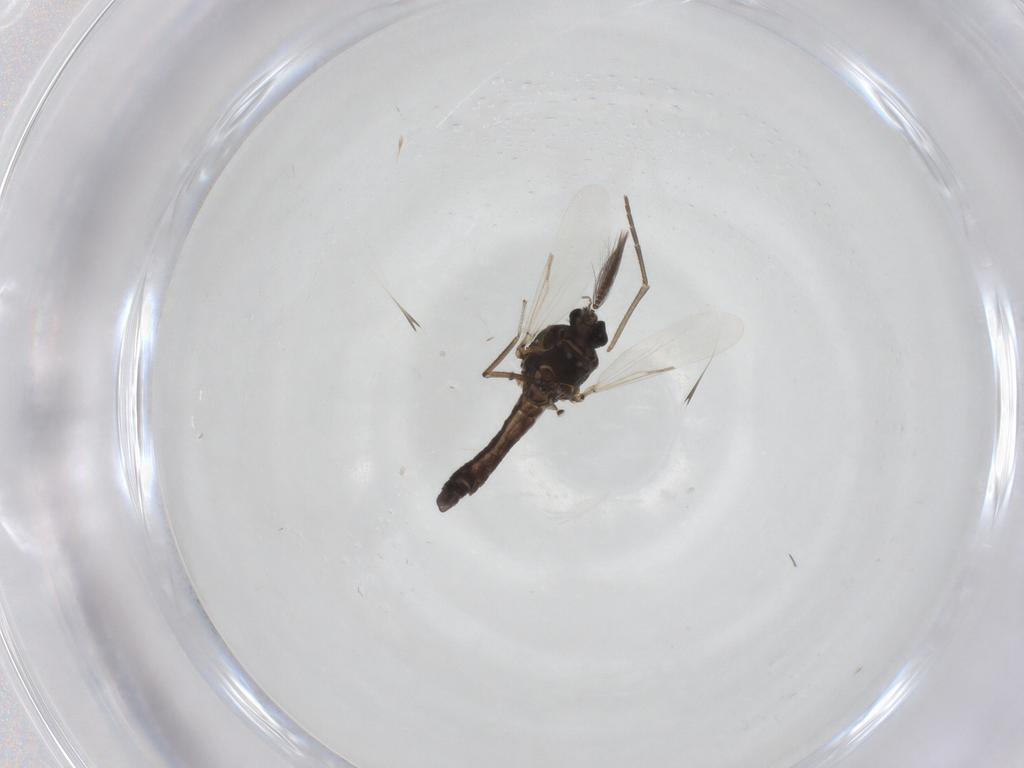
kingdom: Animalia
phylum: Arthropoda
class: Insecta
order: Diptera
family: Ceratopogonidae
